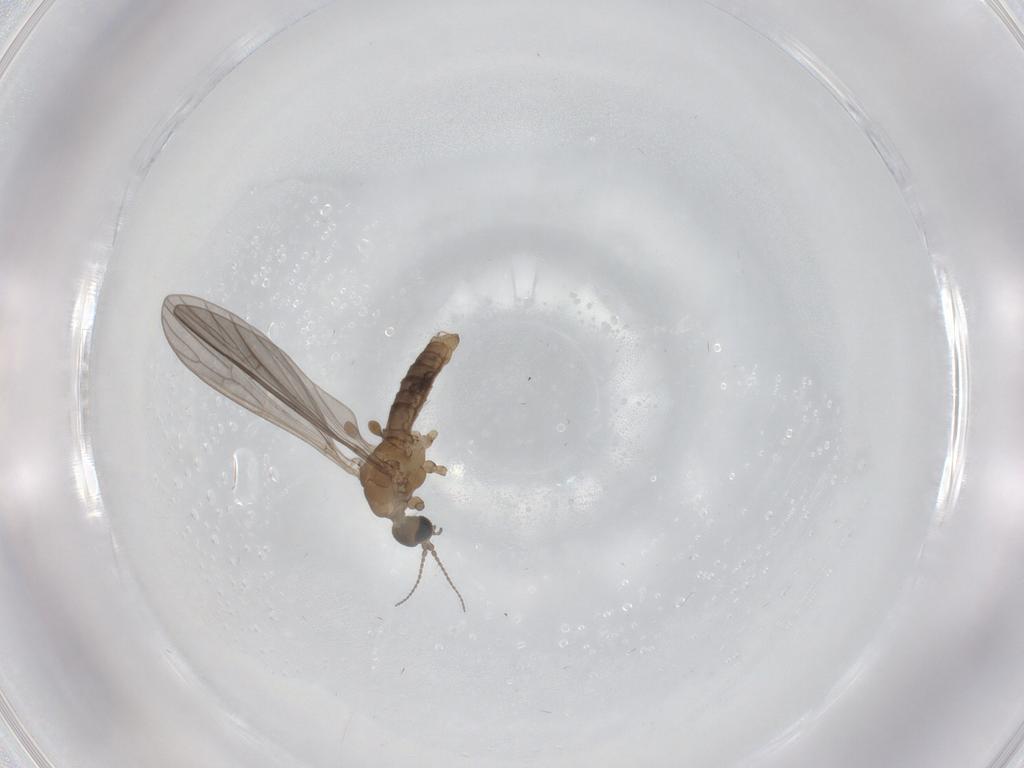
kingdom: Animalia
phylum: Arthropoda
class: Insecta
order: Diptera
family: Limoniidae
